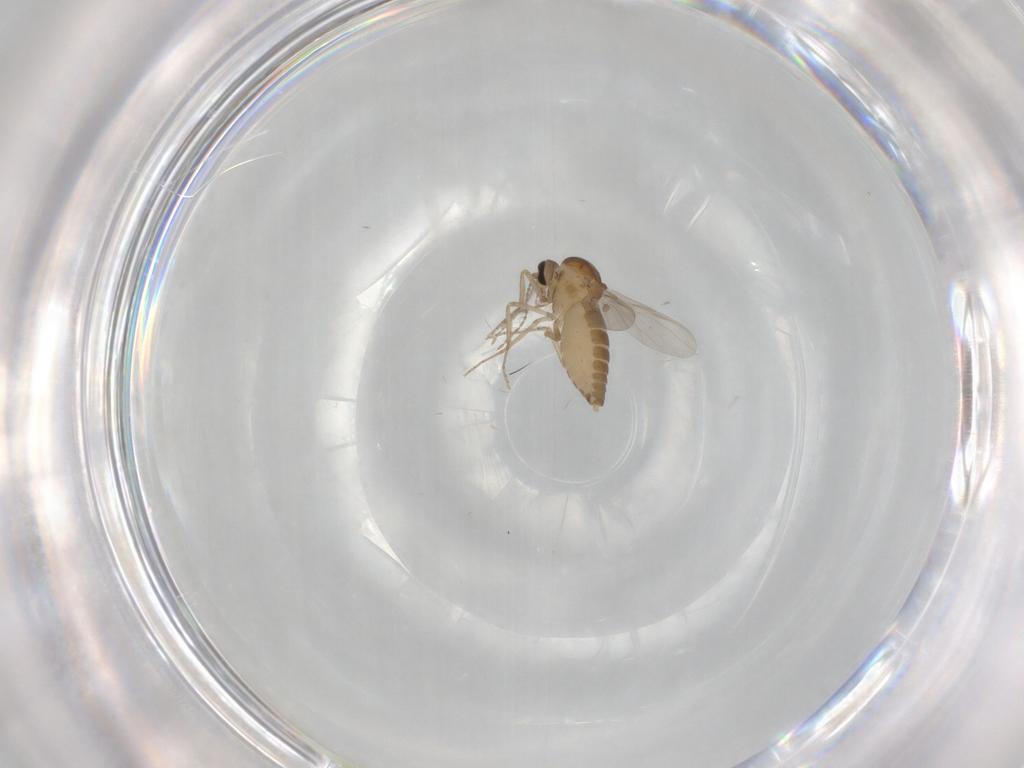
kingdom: Animalia
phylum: Arthropoda
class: Insecta
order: Diptera
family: Ceratopogonidae
